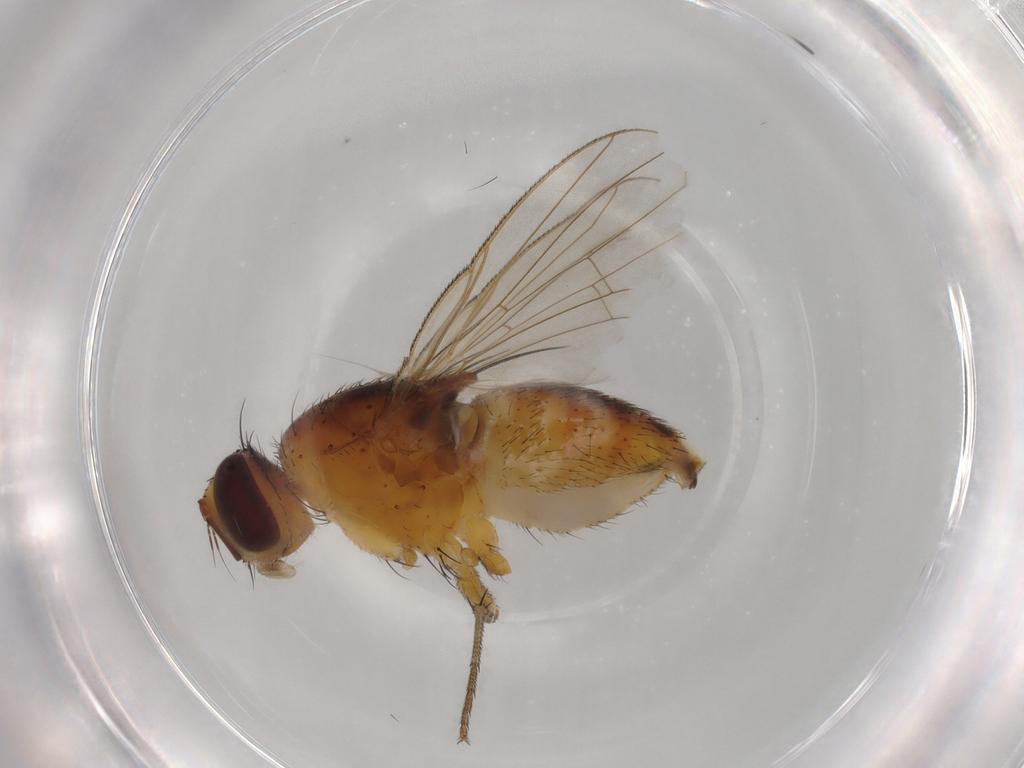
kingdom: Animalia
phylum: Arthropoda
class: Insecta
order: Diptera
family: Muscidae
